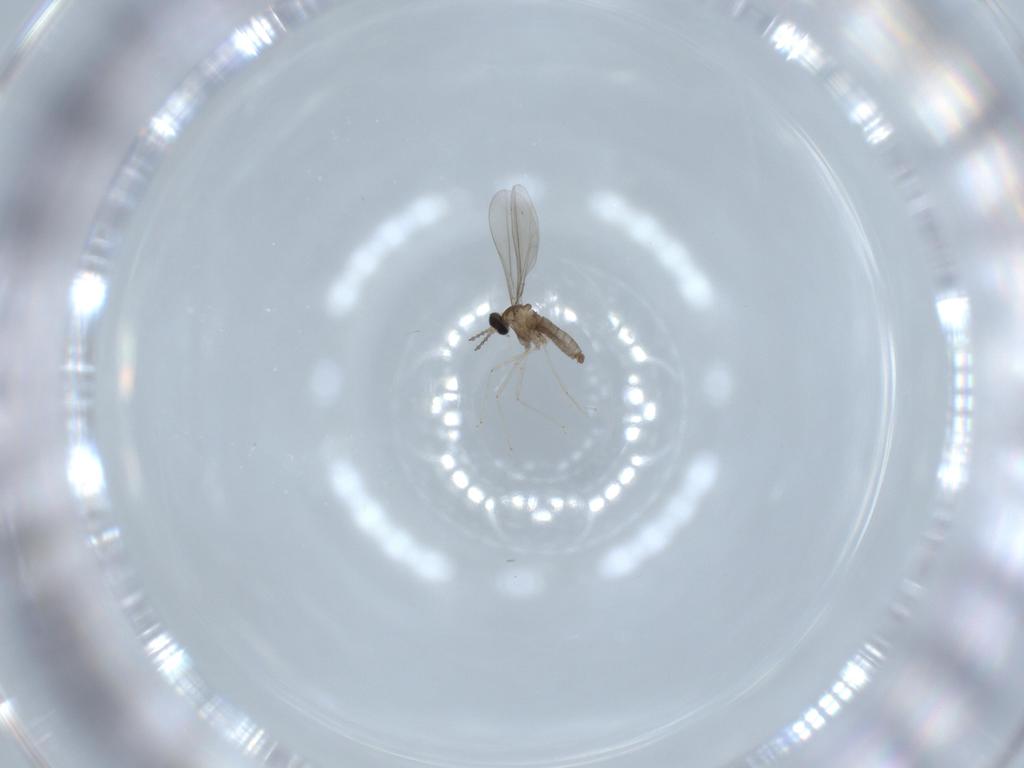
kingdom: Animalia
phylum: Arthropoda
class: Insecta
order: Diptera
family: Cecidomyiidae
